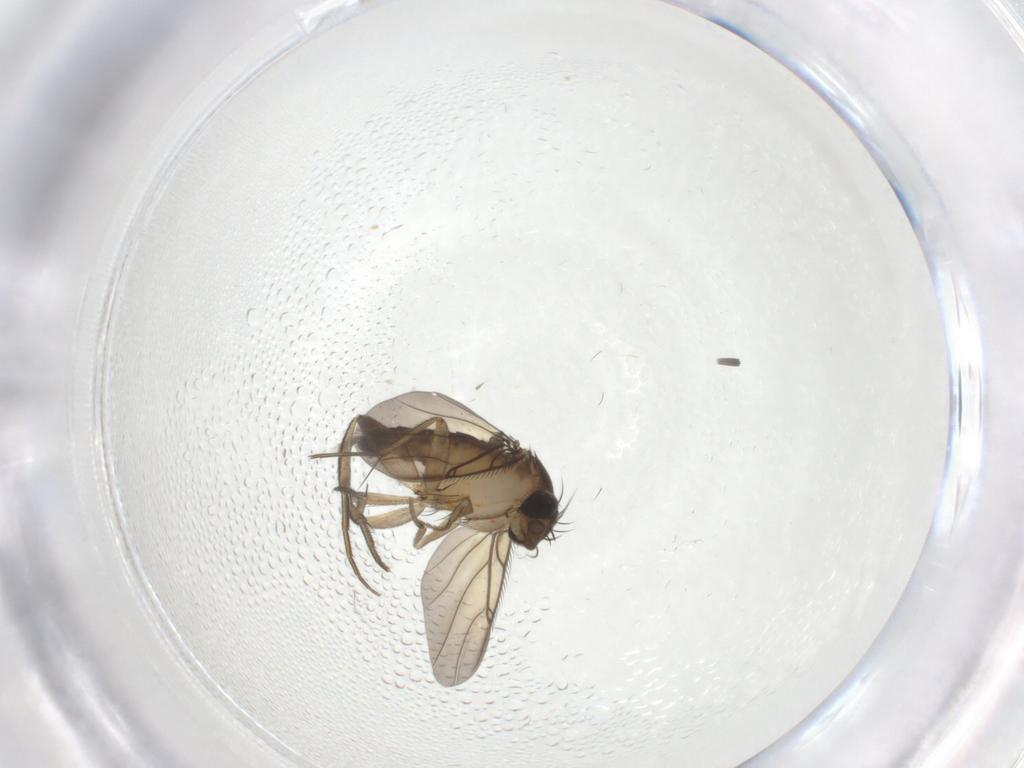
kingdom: Animalia
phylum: Arthropoda
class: Insecta
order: Diptera
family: Phoridae
